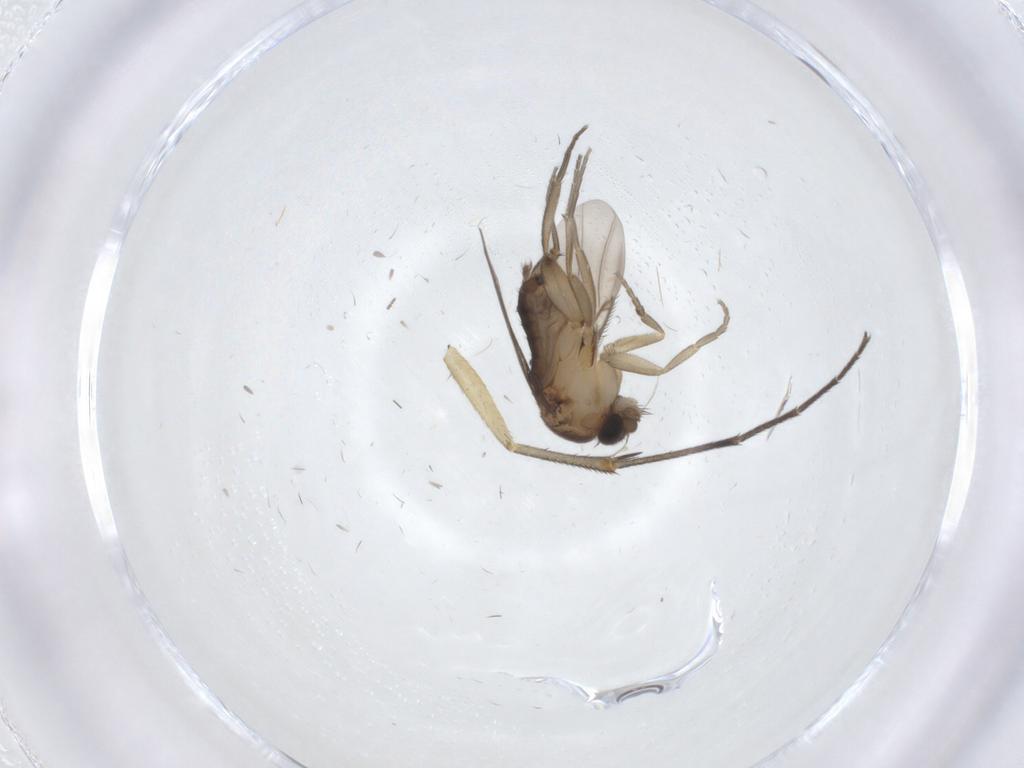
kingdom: Animalia
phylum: Arthropoda
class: Insecta
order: Diptera
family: Phoridae
